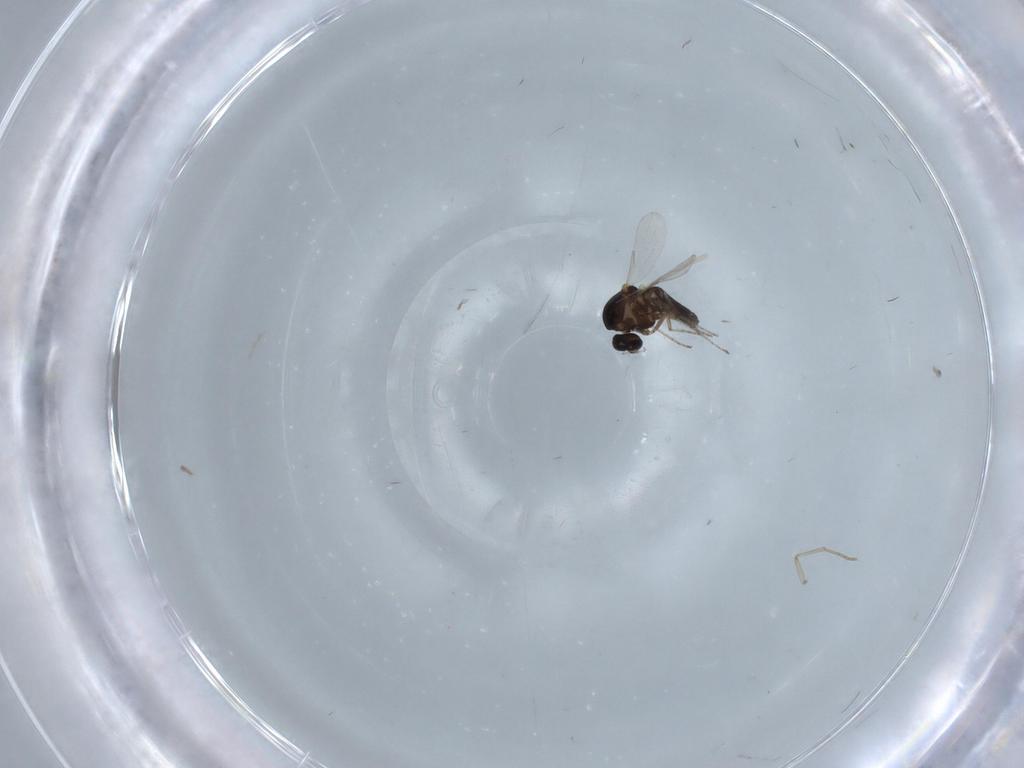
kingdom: Animalia
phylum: Arthropoda
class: Insecta
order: Diptera
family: Ceratopogonidae
